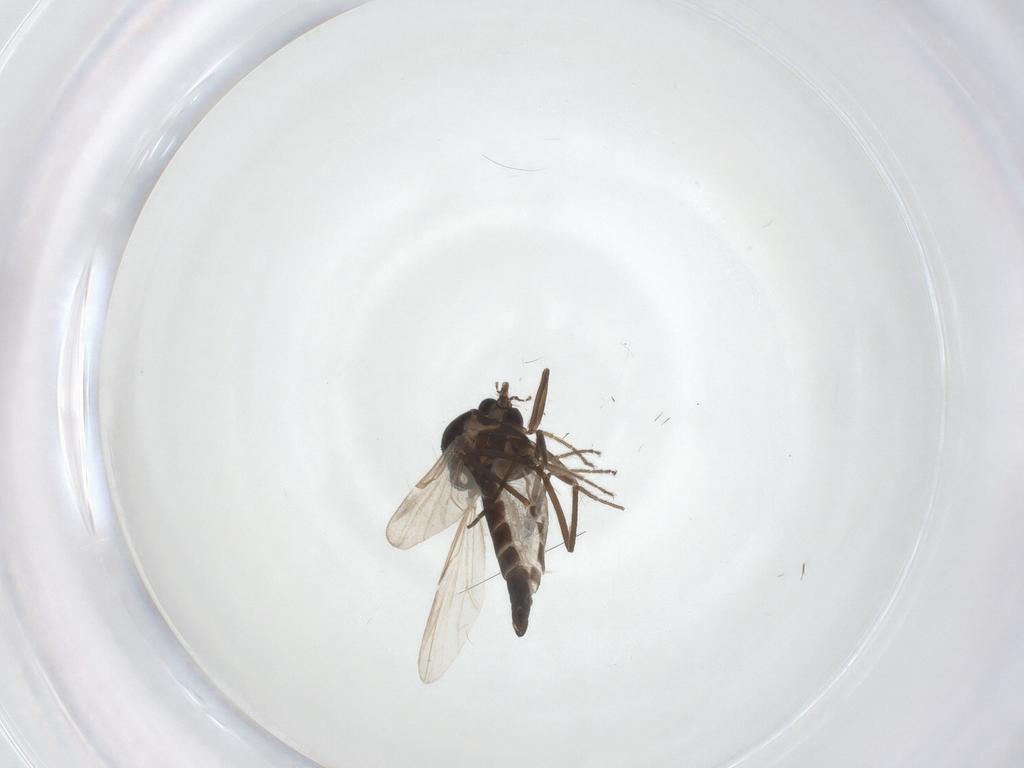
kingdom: Animalia
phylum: Arthropoda
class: Insecta
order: Diptera
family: Ceratopogonidae
